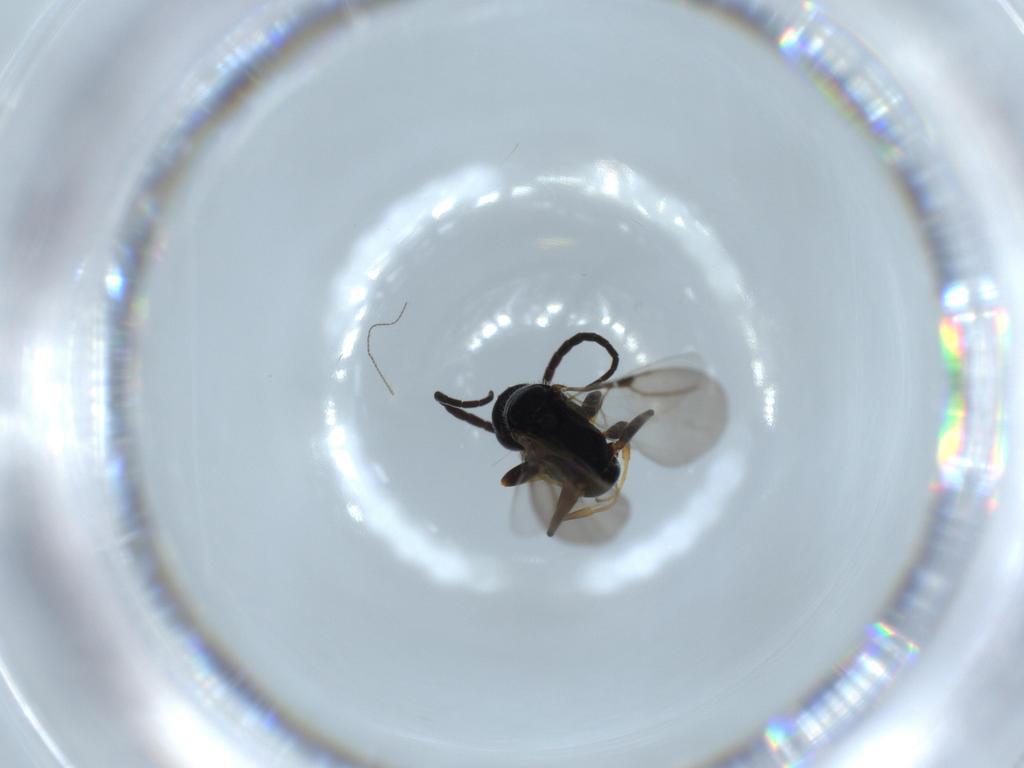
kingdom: Animalia
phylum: Arthropoda
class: Insecta
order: Hymenoptera
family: Bethylidae
